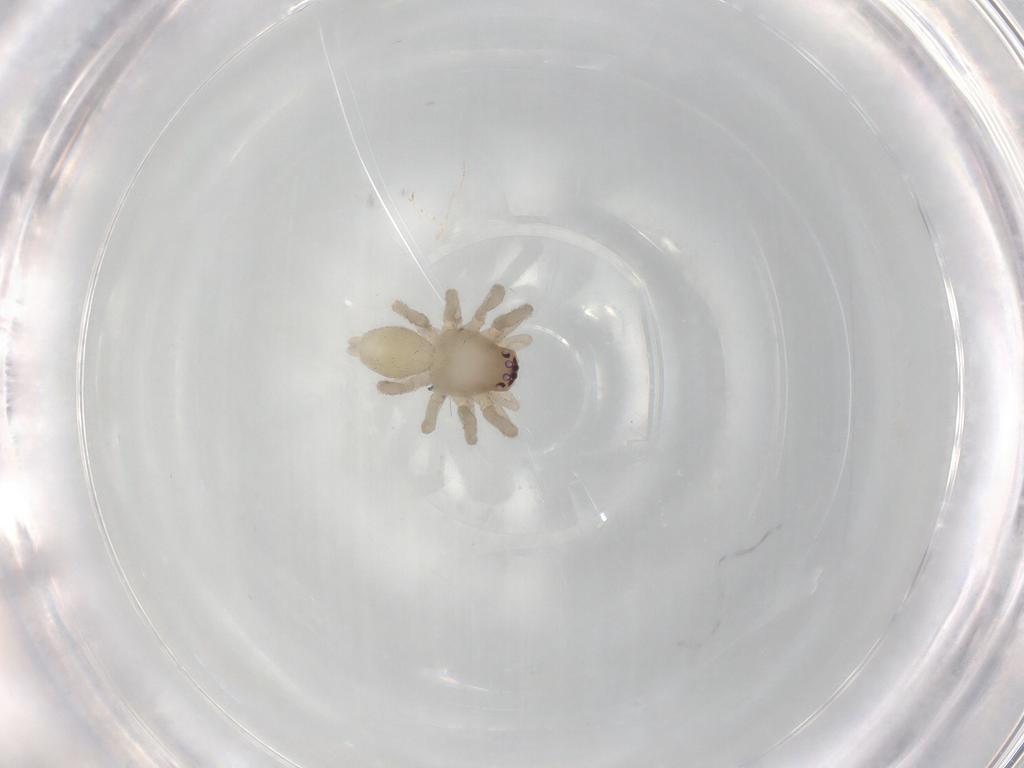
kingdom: Animalia
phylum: Arthropoda
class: Arachnida
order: Araneae
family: Trachelidae
